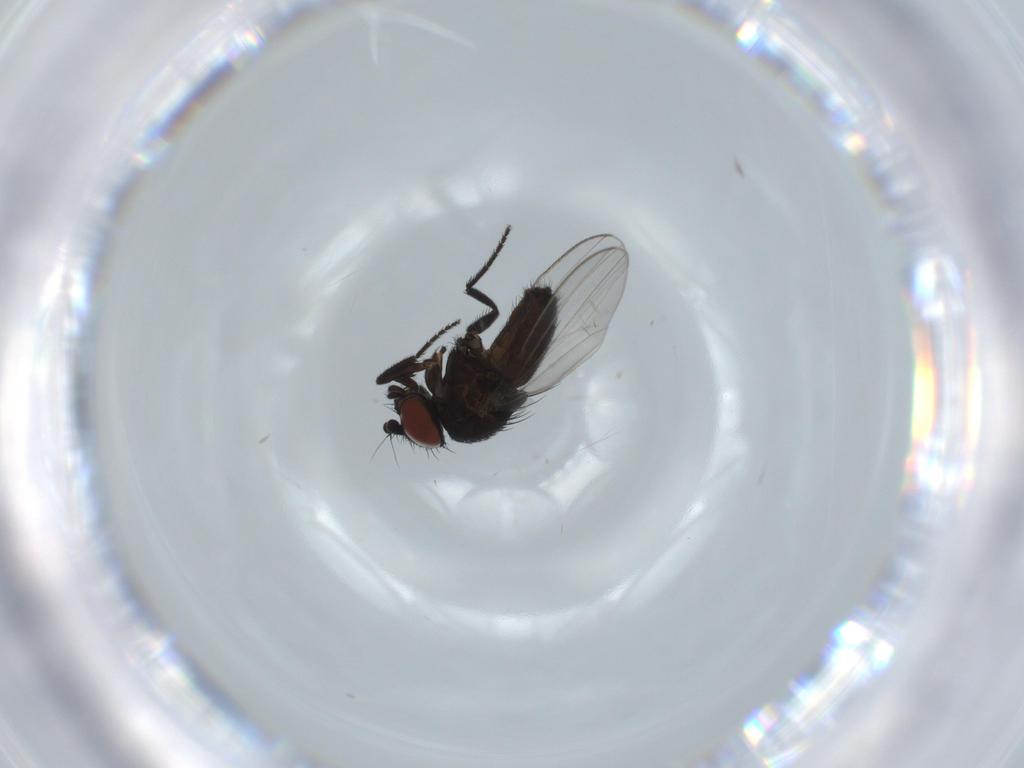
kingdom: Animalia
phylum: Arthropoda
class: Insecta
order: Diptera
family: Milichiidae
